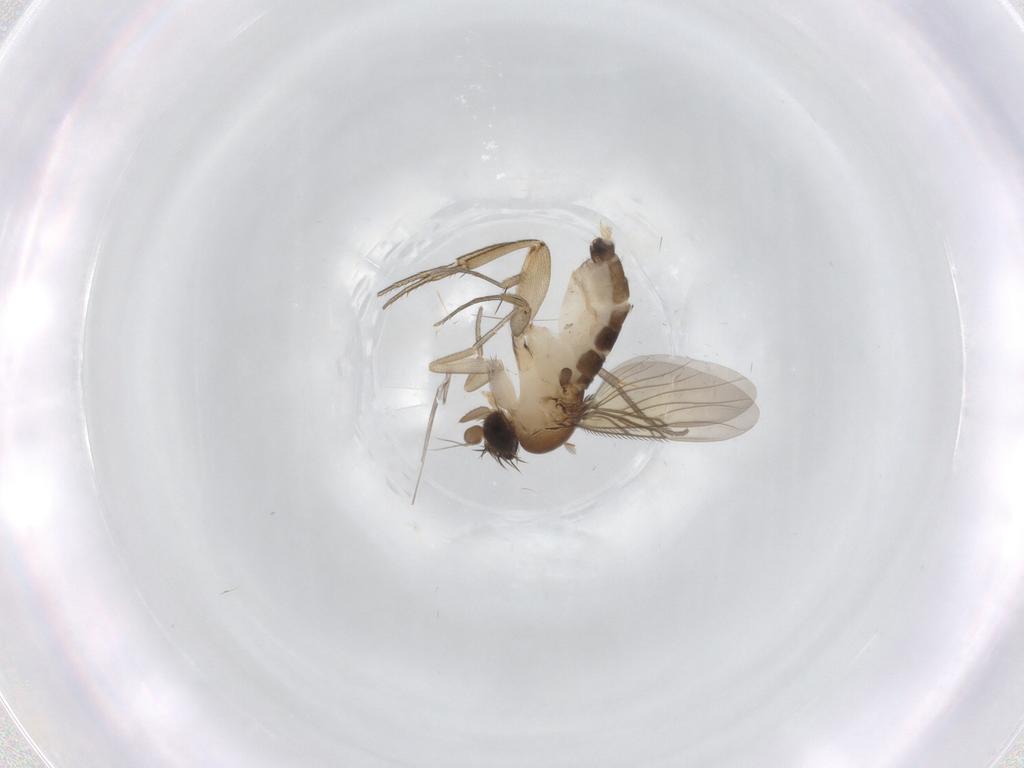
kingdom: Animalia
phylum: Arthropoda
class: Insecta
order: Diptera
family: Phoridae
